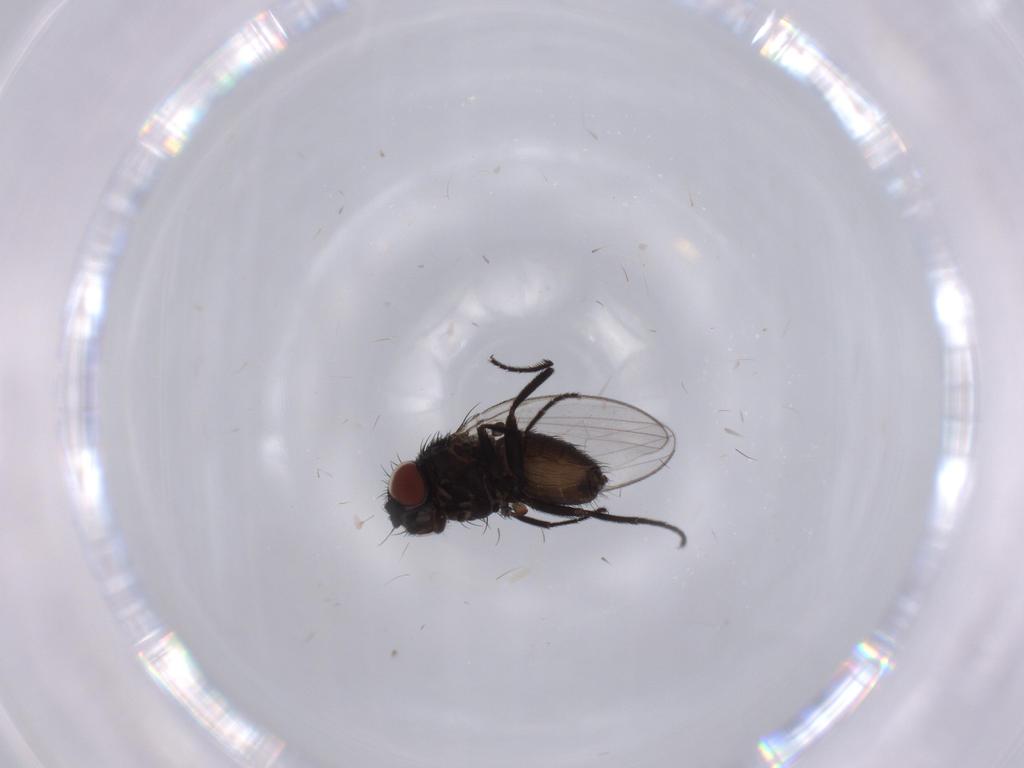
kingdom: Animalia
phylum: Arthropoda
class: Insecta
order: Diptera
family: Milichiidae
